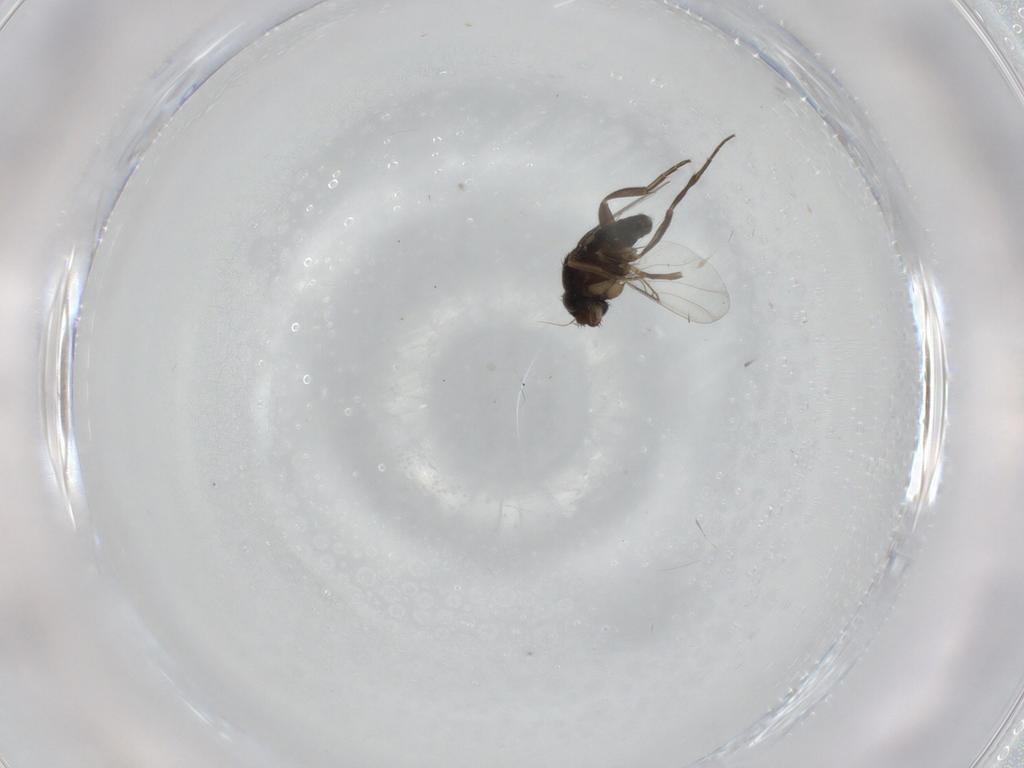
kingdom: Animalia
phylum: Arthropoda
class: Insecta
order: Diptera
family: Phoridae
